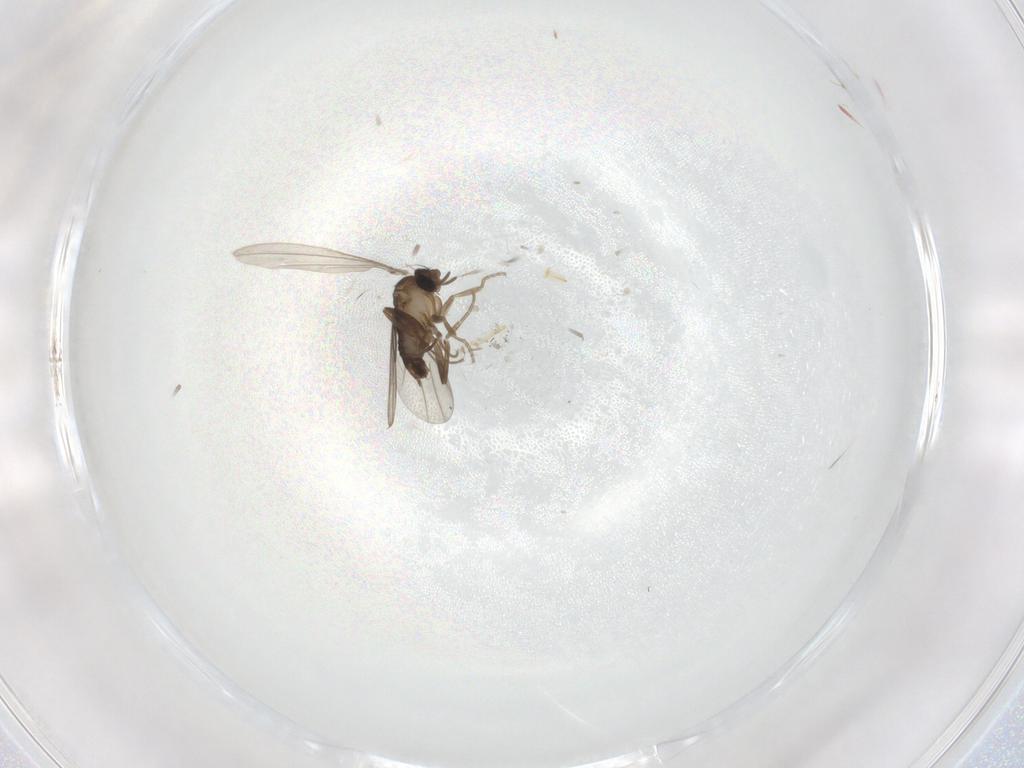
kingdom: Animalia
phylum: Arthropoda
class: Insecta
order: Diptera
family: Cecidomyiidae
